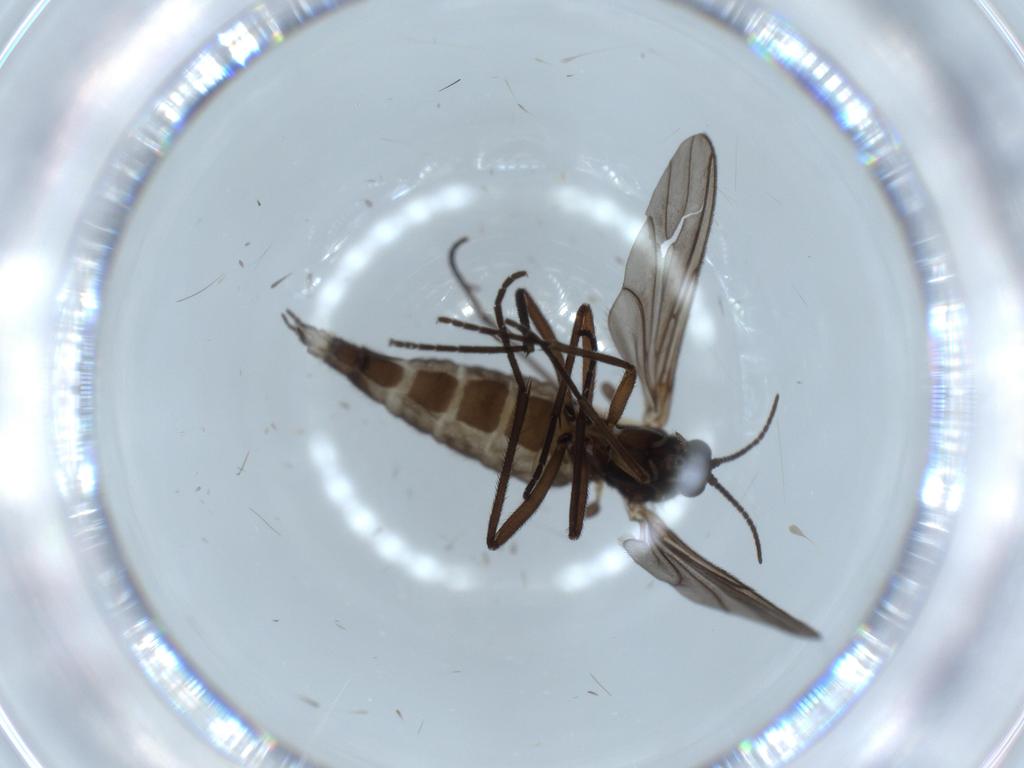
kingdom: Animalia
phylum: Arthropoda
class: Insecta
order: Diptera
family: Sciaridae
